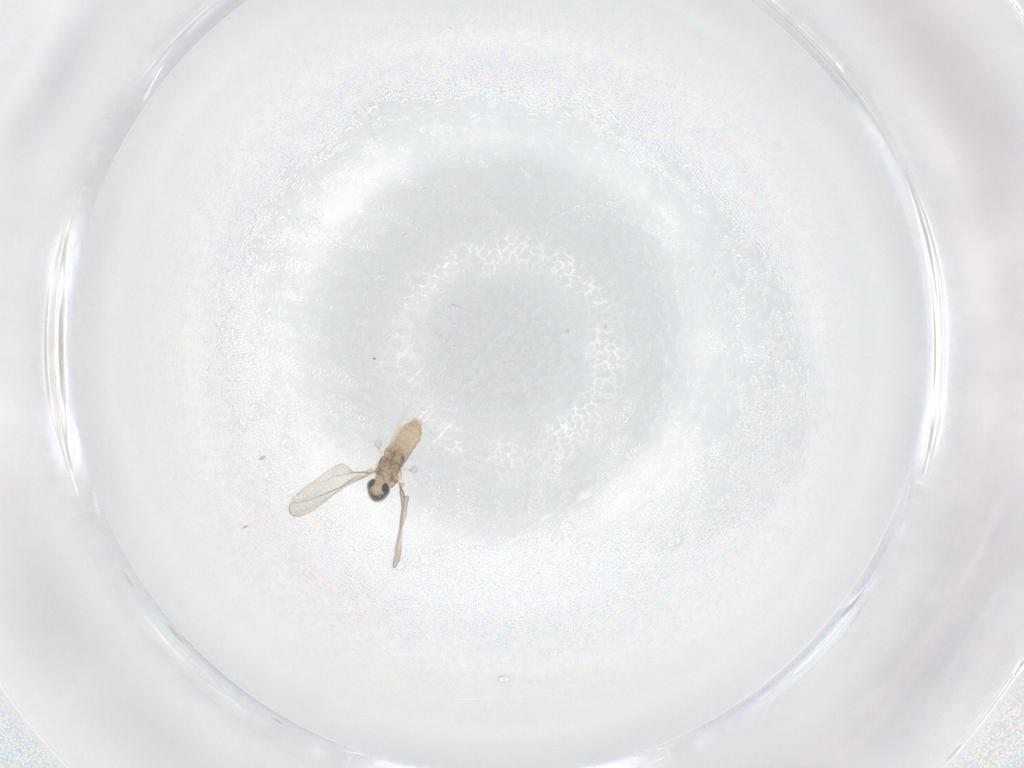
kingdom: Animalia
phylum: Arthropoda
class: Insecta
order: Diptera
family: Cecidomyiidae
